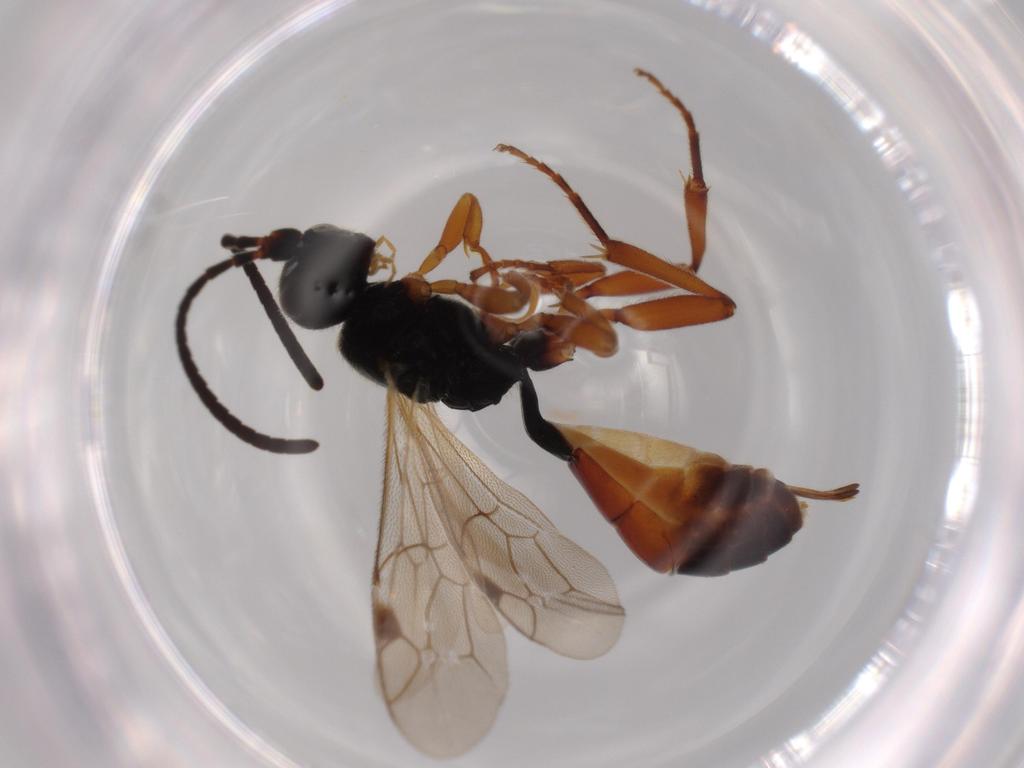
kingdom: Animalia
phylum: Arthropoda
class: Insecta
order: Hymenoptera
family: Ichneumonidae
